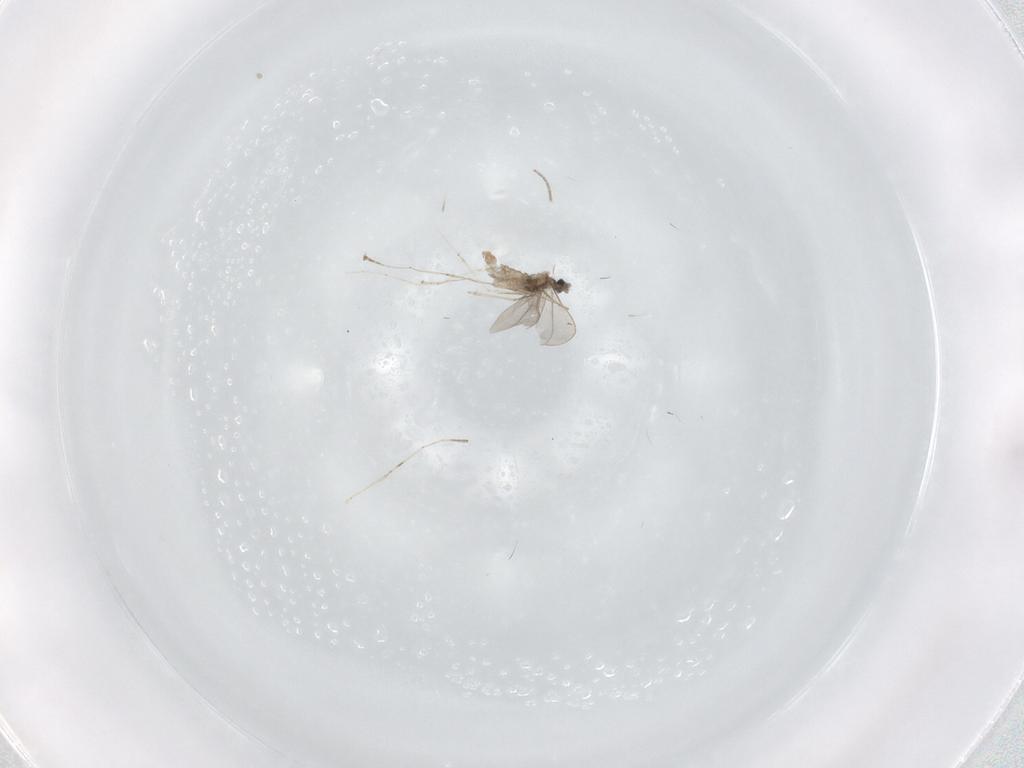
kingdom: Animalia
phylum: Arthropoda
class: Insecta
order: Diptera
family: Phoridae
